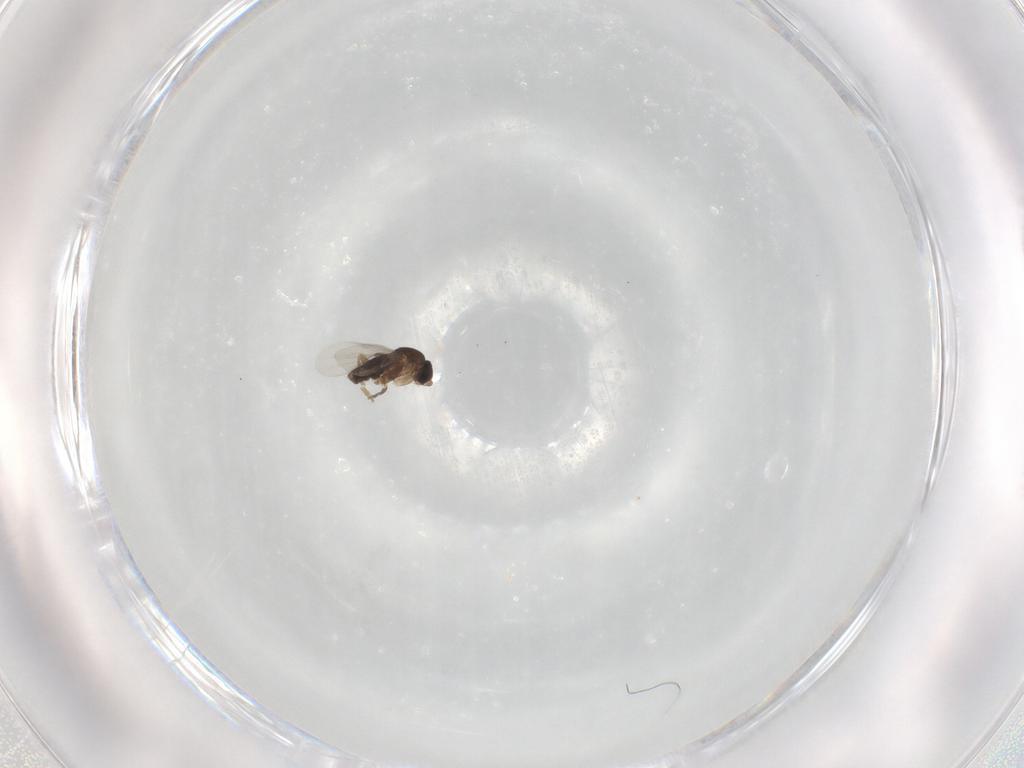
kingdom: Animalia
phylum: Arthropoda
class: Insecta
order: Diptera
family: Phoridae
